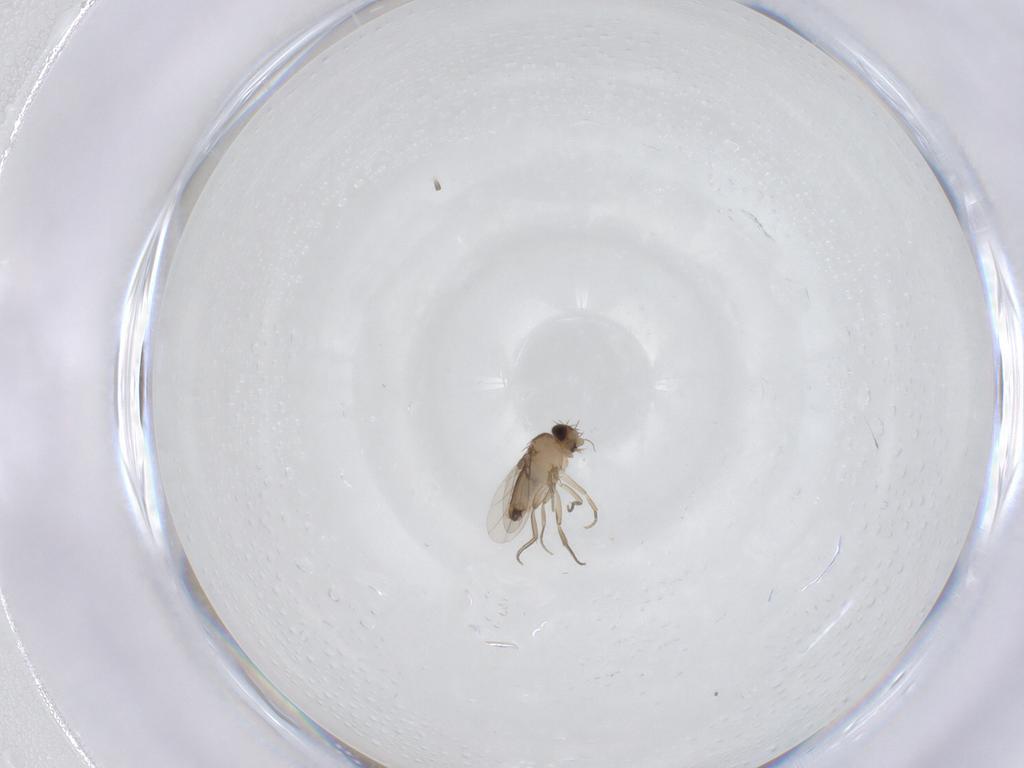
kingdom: Animalia
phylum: Arthropoda
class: Insecta
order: Diptera
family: Phoridae
